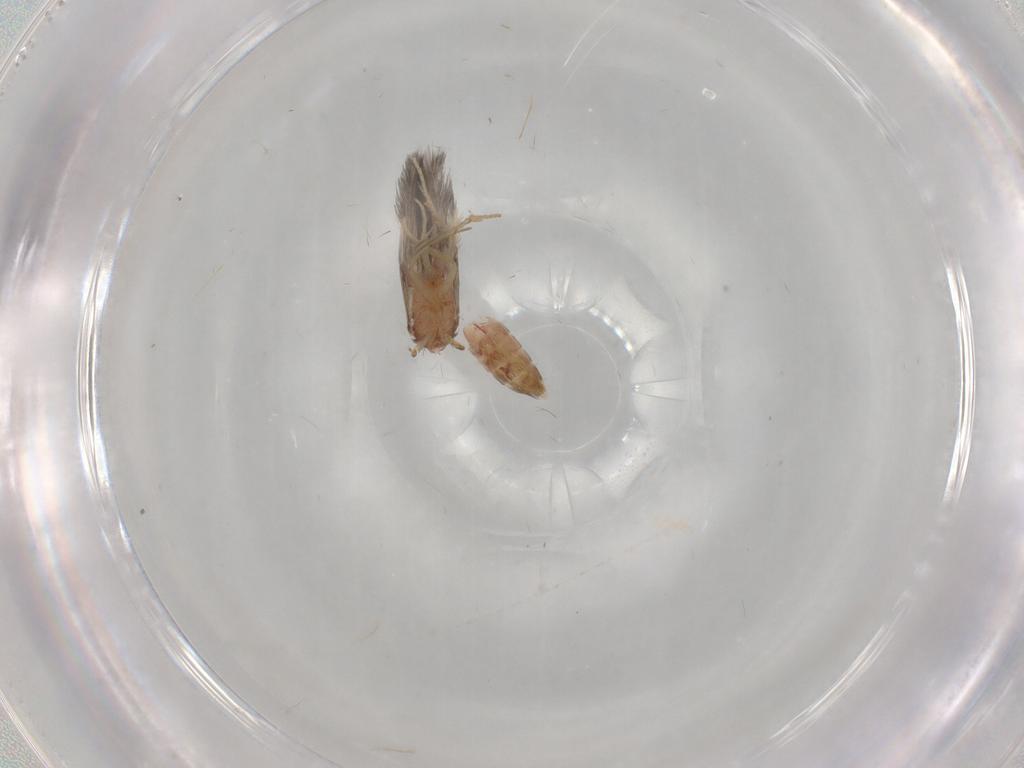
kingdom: Animalia
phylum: Arthropoda
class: Insecta
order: Trichoptera
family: Hydroptilidae
